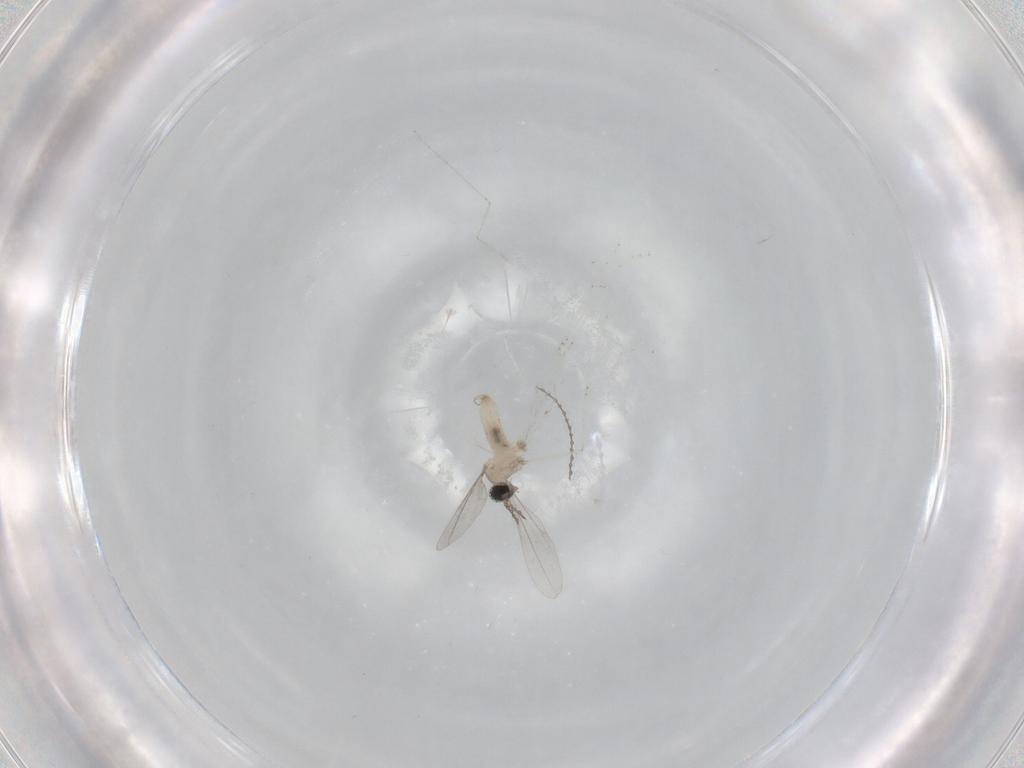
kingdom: Animalia
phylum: Arthropoda
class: Insecta
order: Diptera
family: Cecidomyiidae
